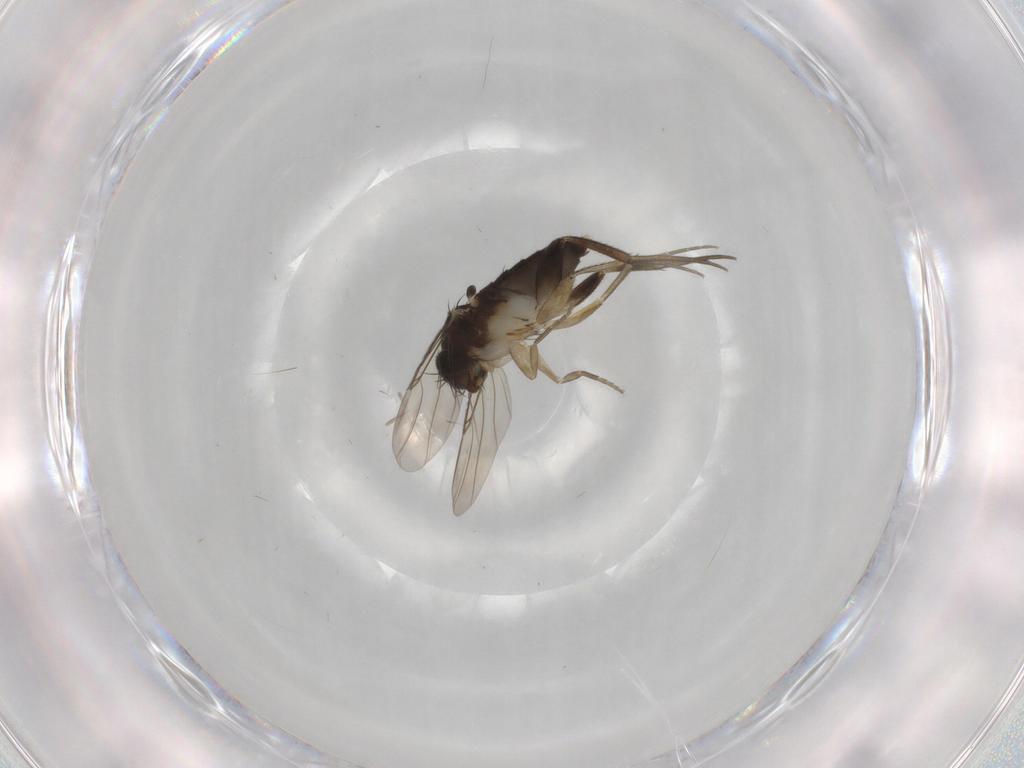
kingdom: Animalia
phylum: Arthropoda
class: Insecta
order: Diptera
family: Phoridae
